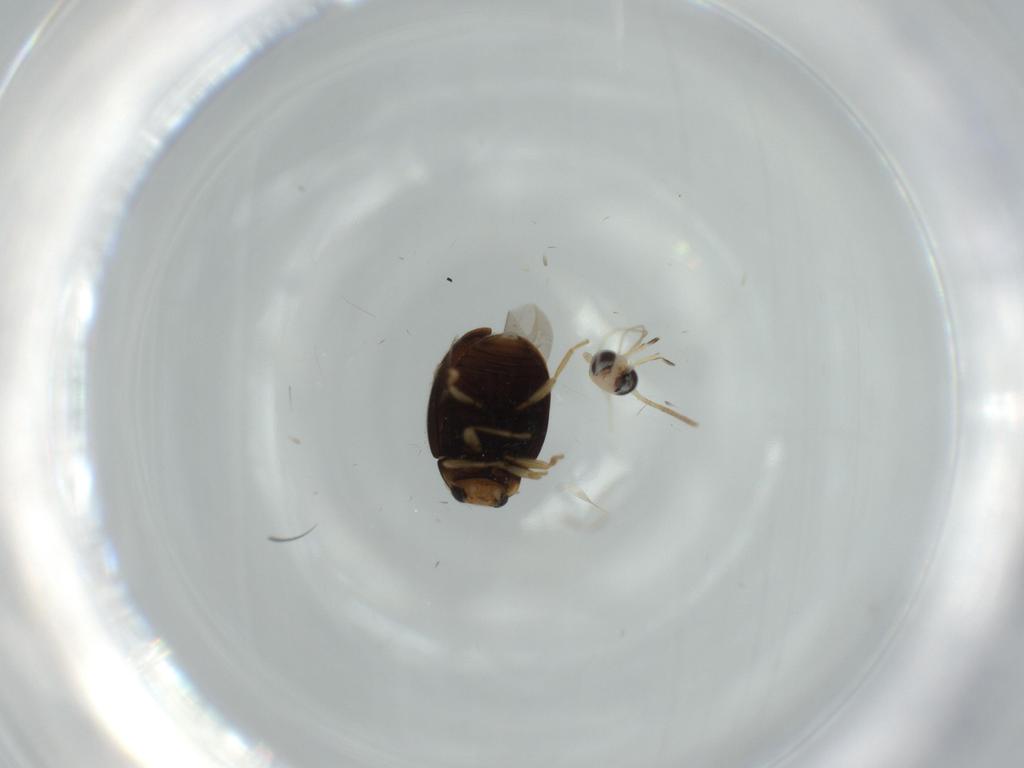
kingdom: Animalia
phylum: Arthropoda
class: Insecta
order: Coleoptera
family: Coccinellidae
